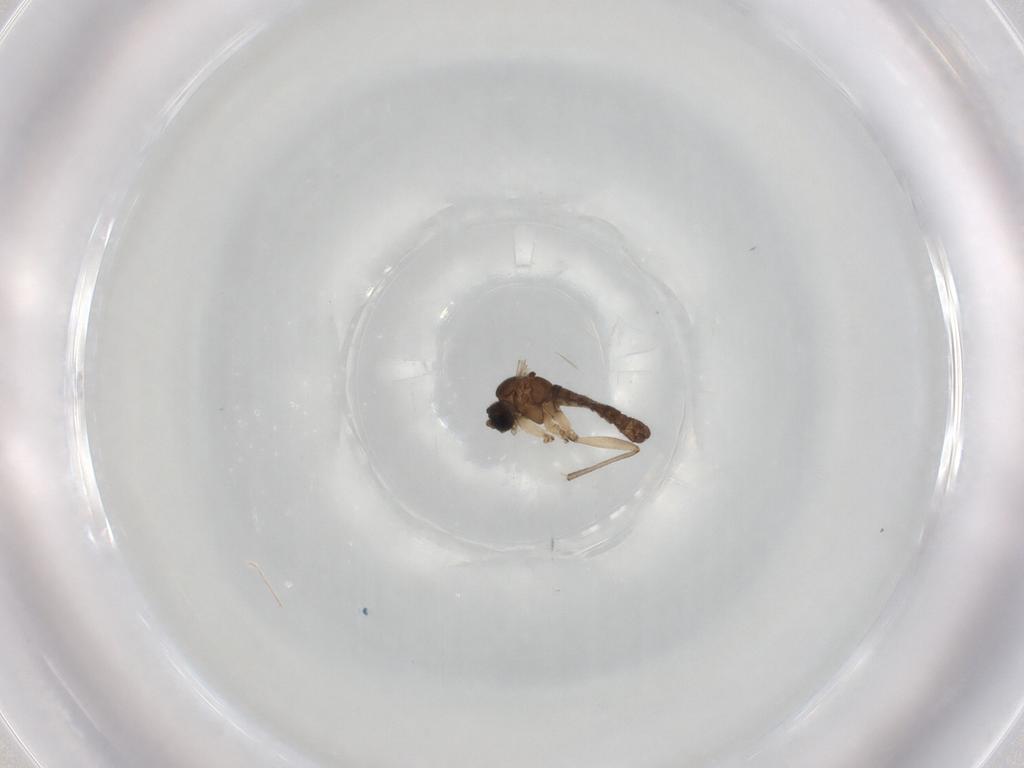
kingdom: Animalia
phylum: Arthropoda
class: Insecta
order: Diptera
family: Sciaridae
